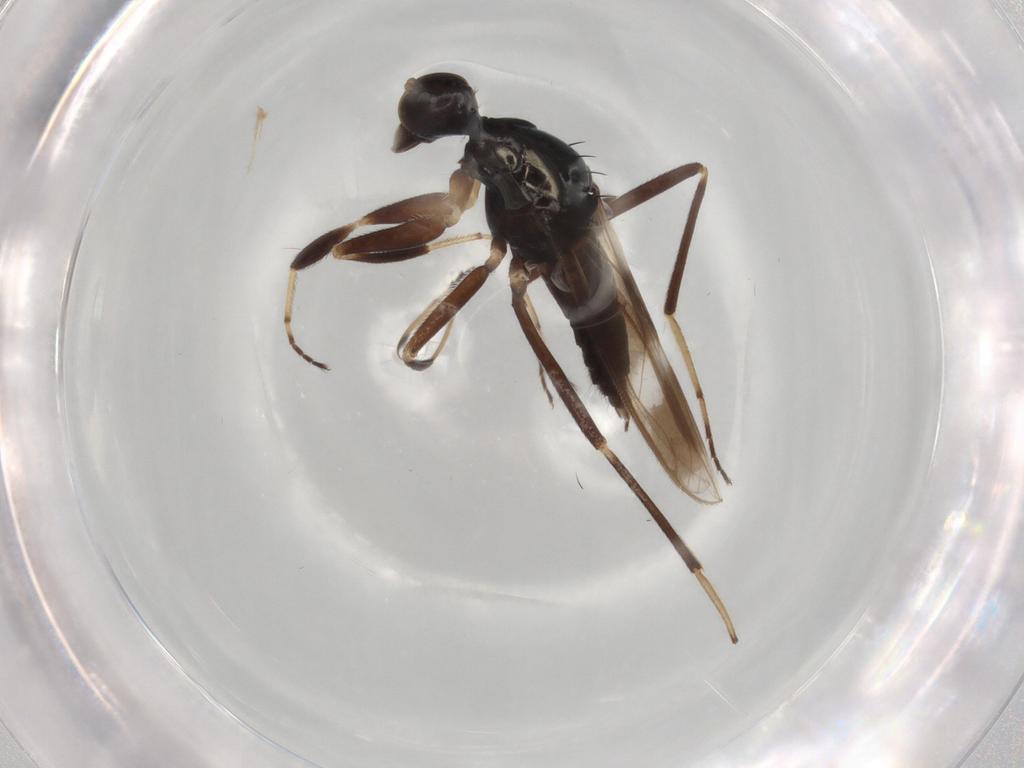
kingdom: Animalia
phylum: Arthropoda
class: Insecta
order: Diptera
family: Hybotidae
